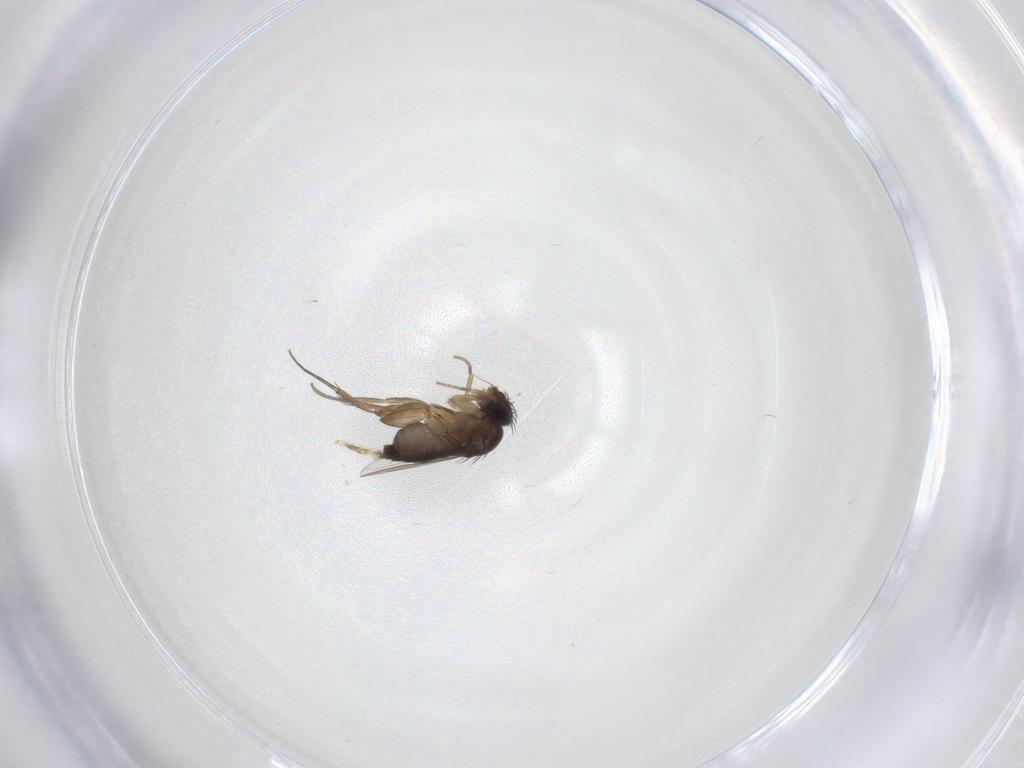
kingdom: Animalia
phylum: Arthropoda
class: Insecta
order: Diptera
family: Phoridae
